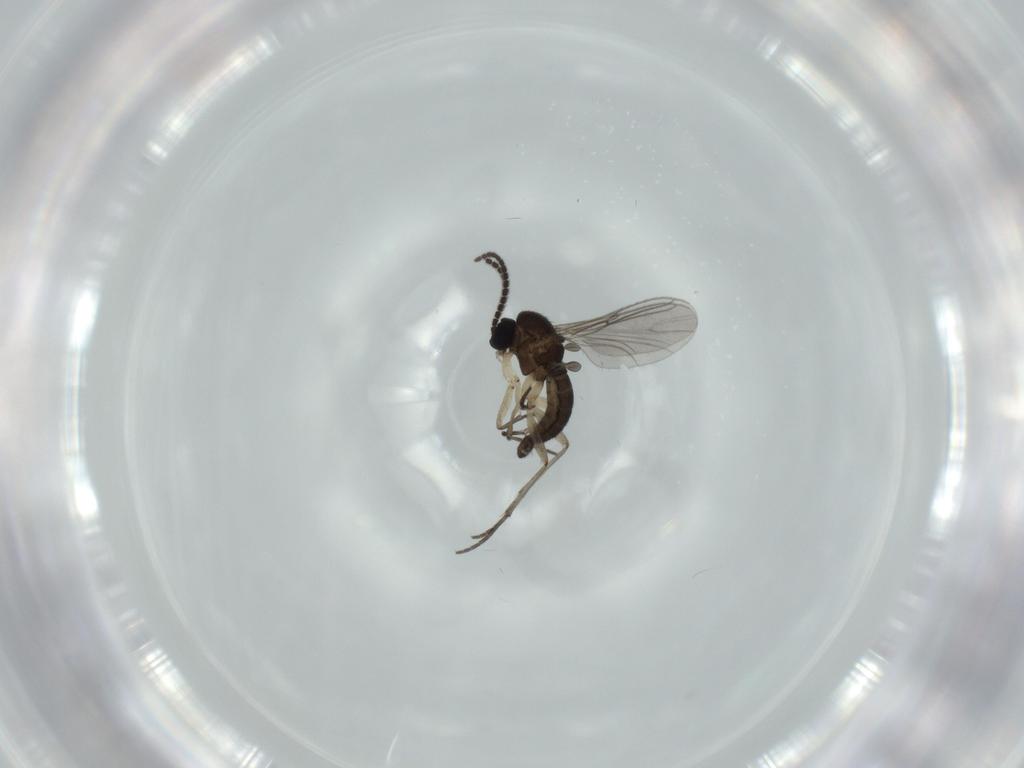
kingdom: Animalia
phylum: Arthropoda
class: Insecta
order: Diptera
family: Sciaridae
